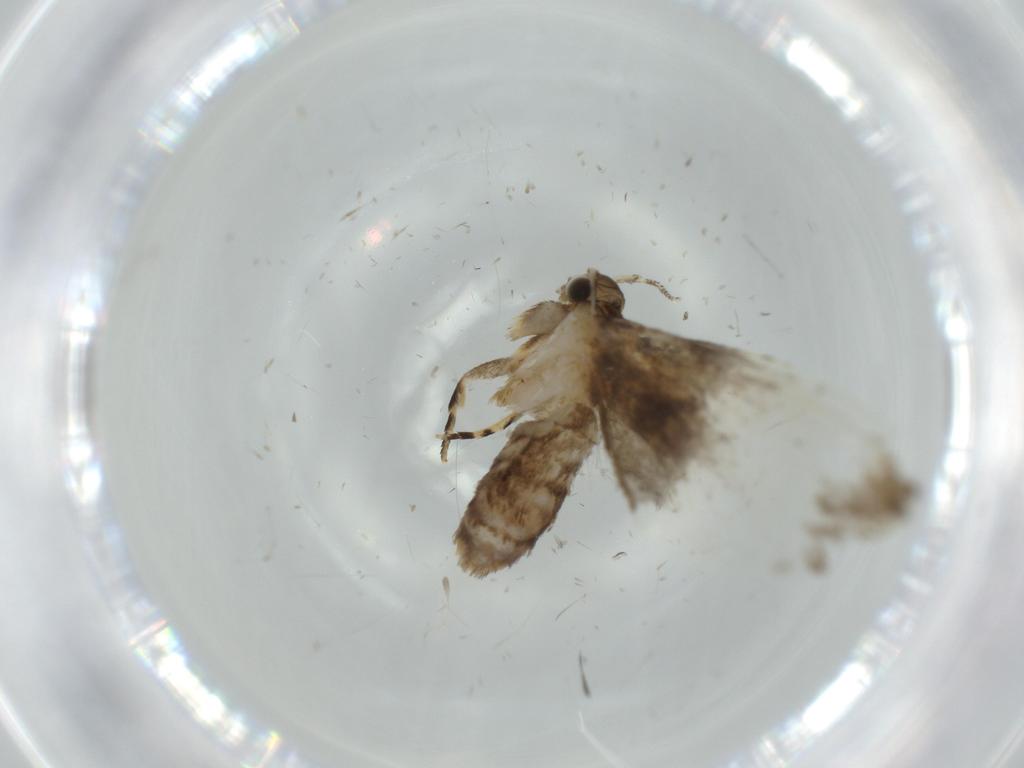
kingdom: Animalia
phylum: Arthropoda
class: Insecta
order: Lepidoptera
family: Tineidae
